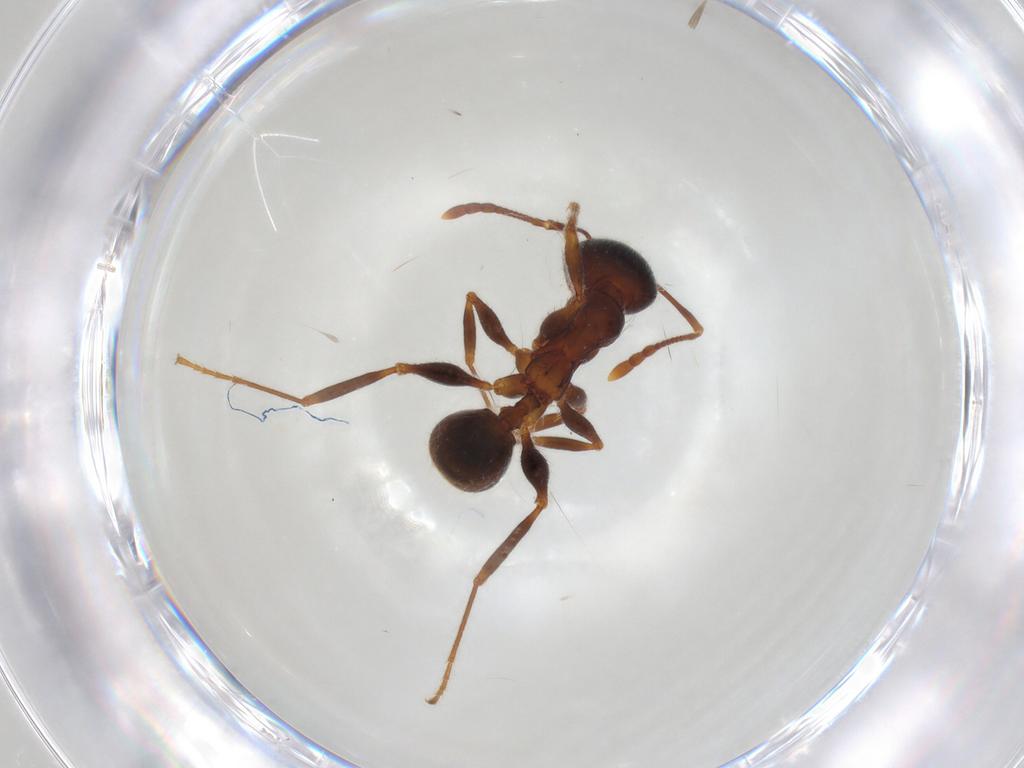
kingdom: Animalia
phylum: Arthropoda
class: Insecta
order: Hymenoptera
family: Formicidae
